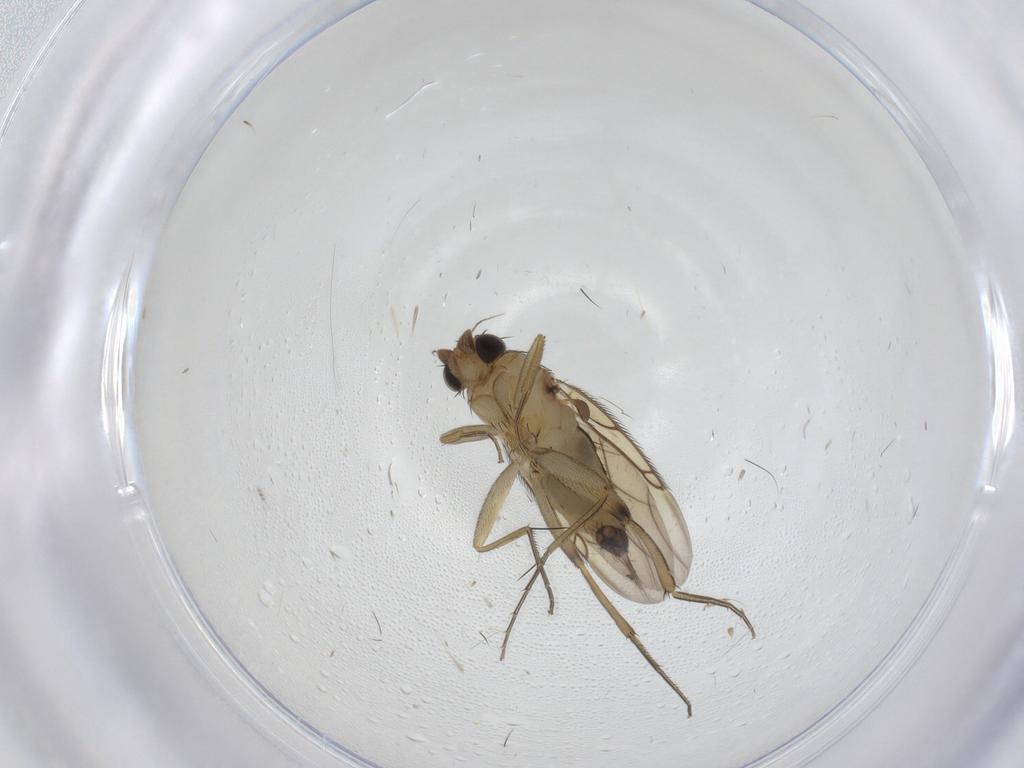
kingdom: Animalia
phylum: Arthropoda
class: Insecta
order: Diptera
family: Phoridae
